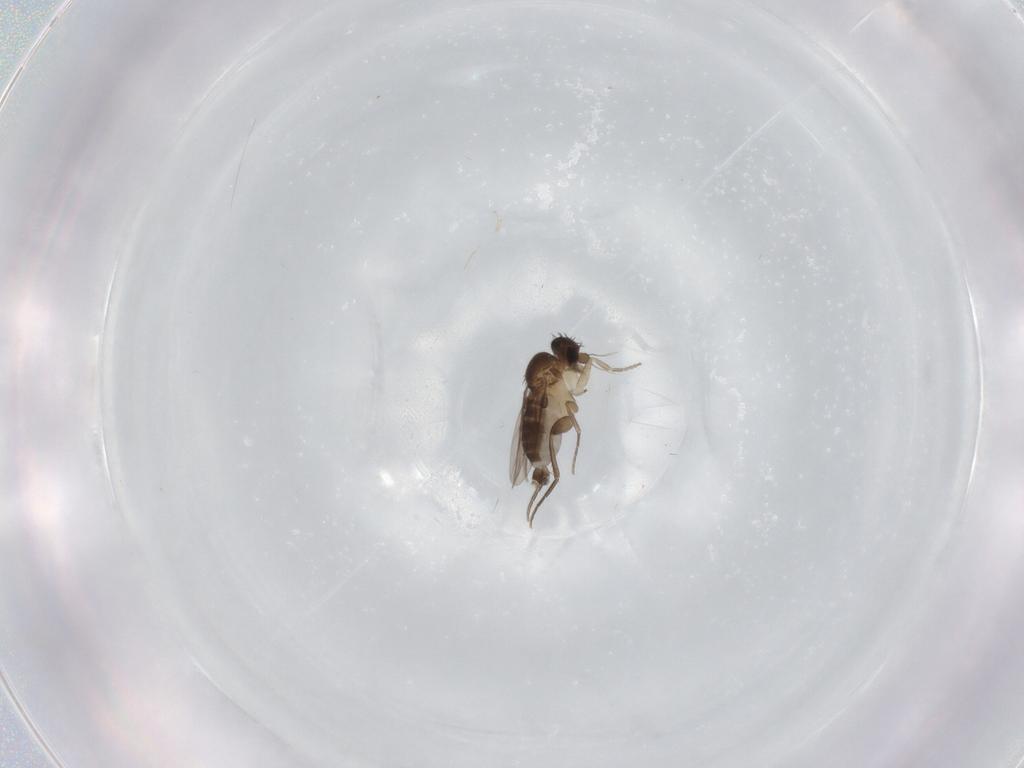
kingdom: Animalia
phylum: Arthropoda
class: Insecta
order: Diptera
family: Phoridae
